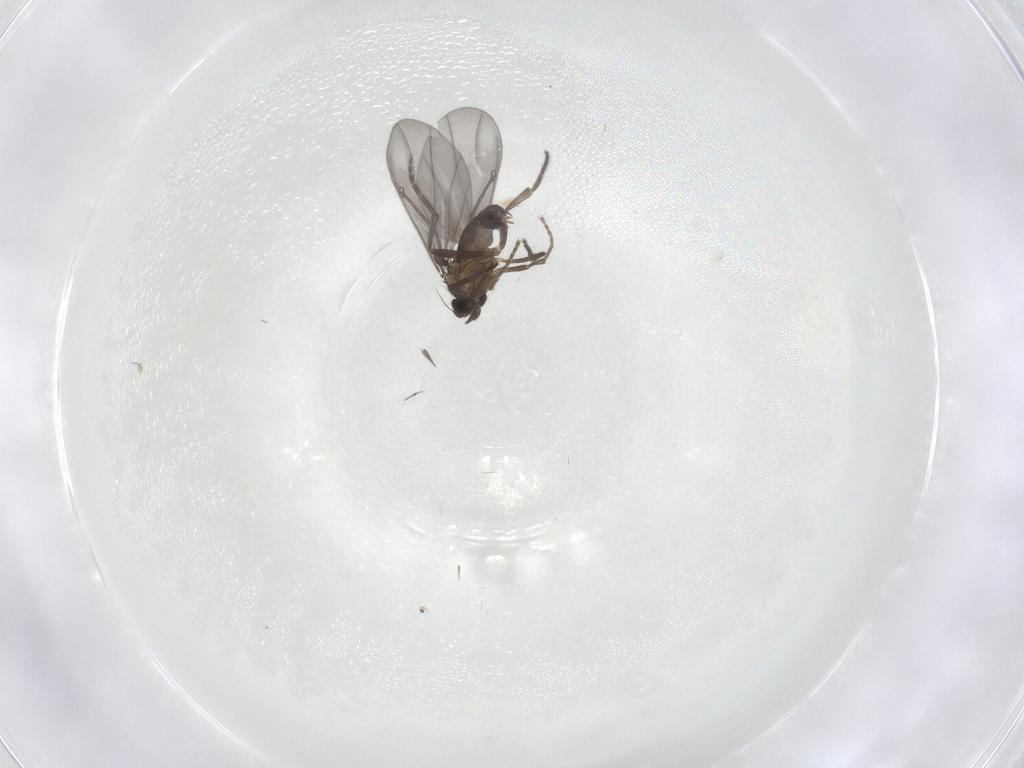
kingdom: Animalia
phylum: Arthropoda
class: Insecta
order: Diptera
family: Phoridae
